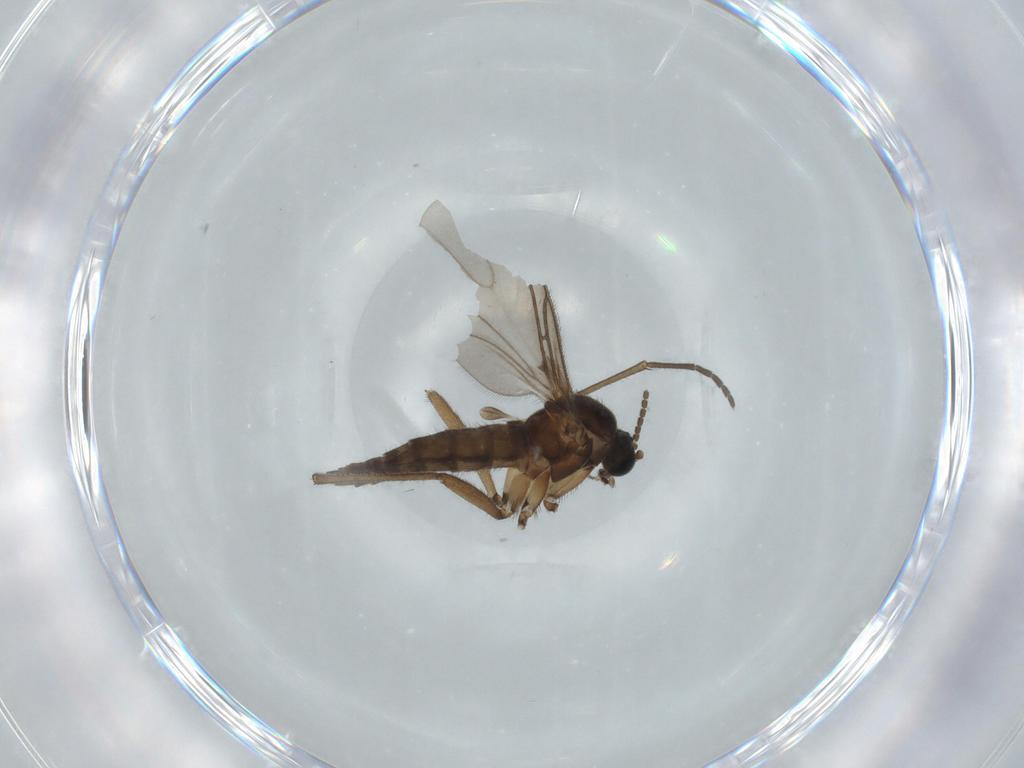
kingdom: Animalia
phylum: Arthropoda
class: Insecta
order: Diptera
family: Sciaridae
